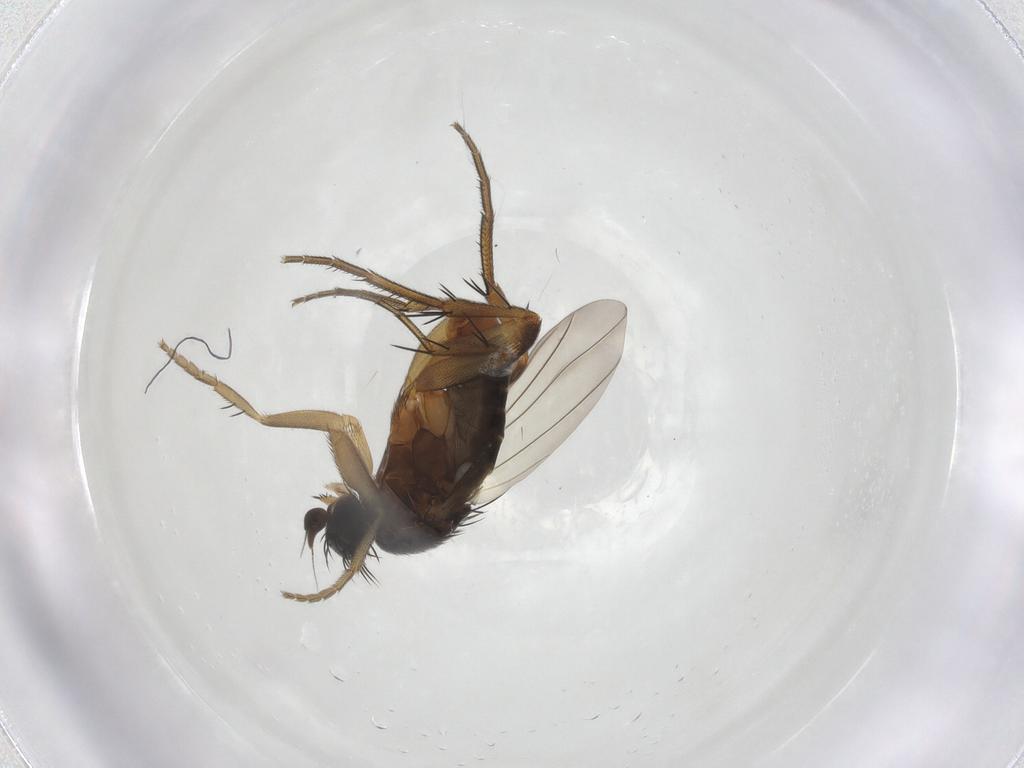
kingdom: Animalia
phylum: Arthropoda
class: Insecta
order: Diptera
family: Phoridae
